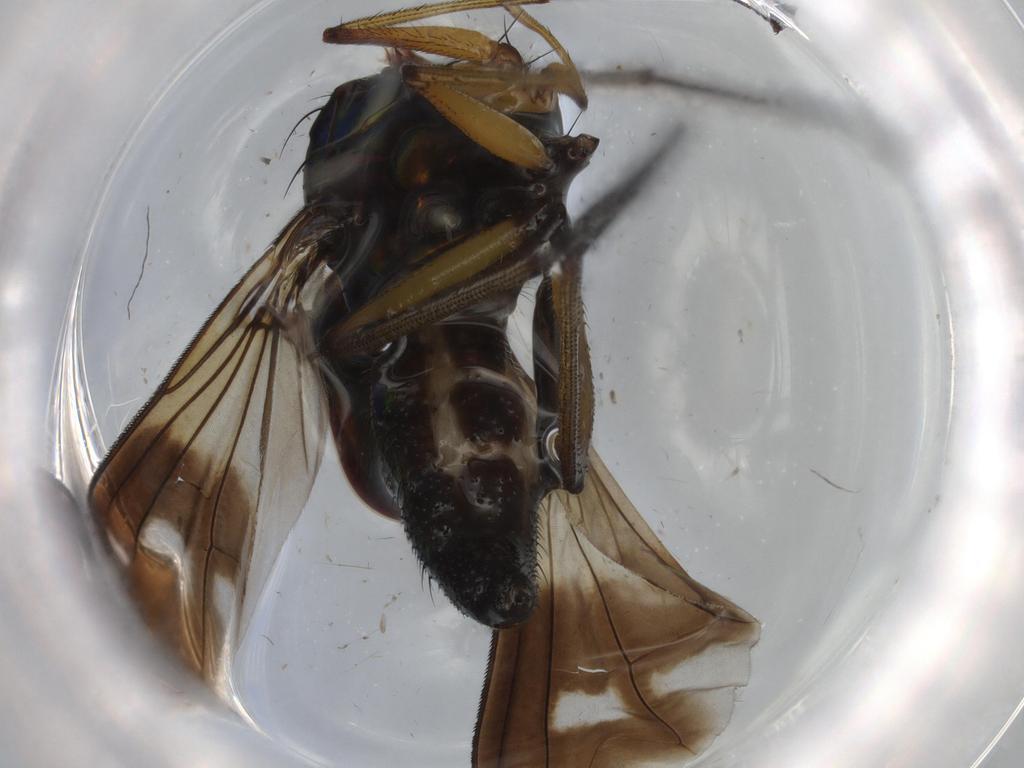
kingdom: Animalia
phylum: Arthropoda
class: Insecta
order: Diptera
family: Dolichopodidae
